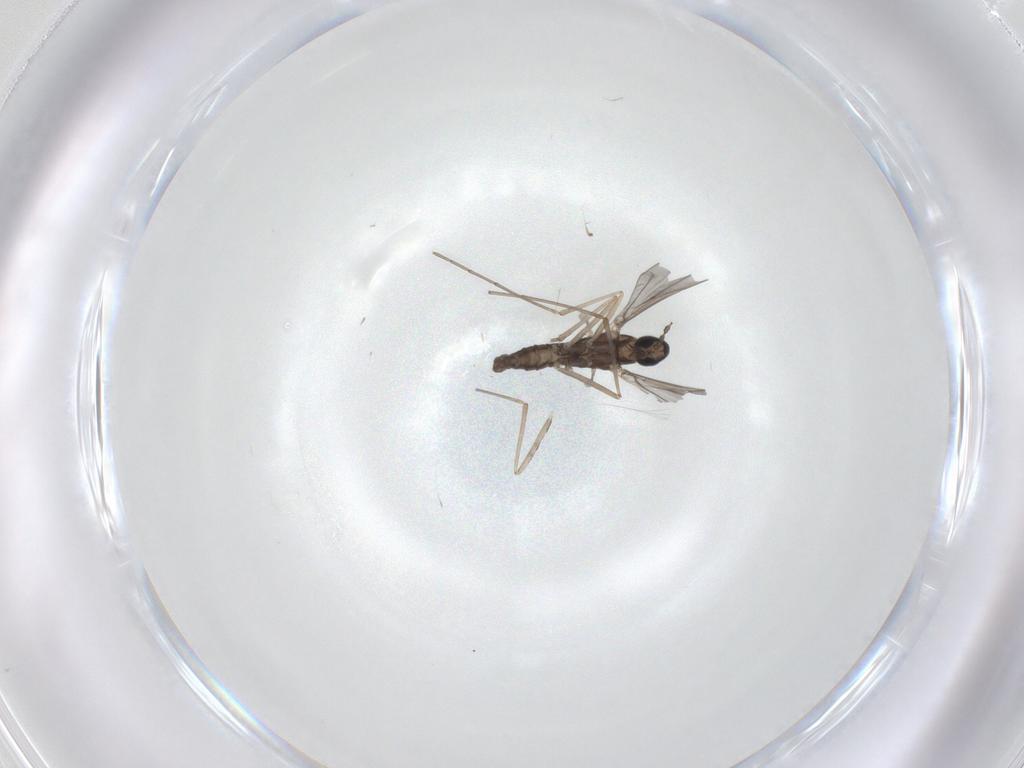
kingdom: Animalia
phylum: Arthropoda
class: Insecta
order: Diptera
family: Cecidomyiidae
